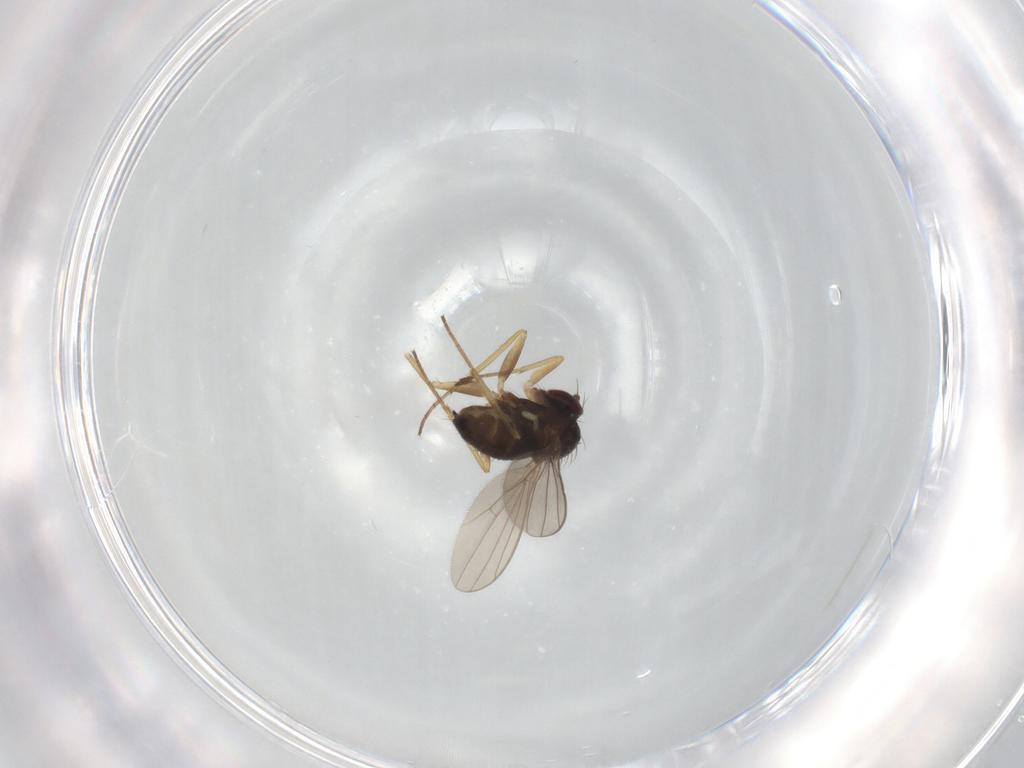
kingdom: Animalia
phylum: Arthropoda
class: Insecta
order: Diptera
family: Dolichopodidae
